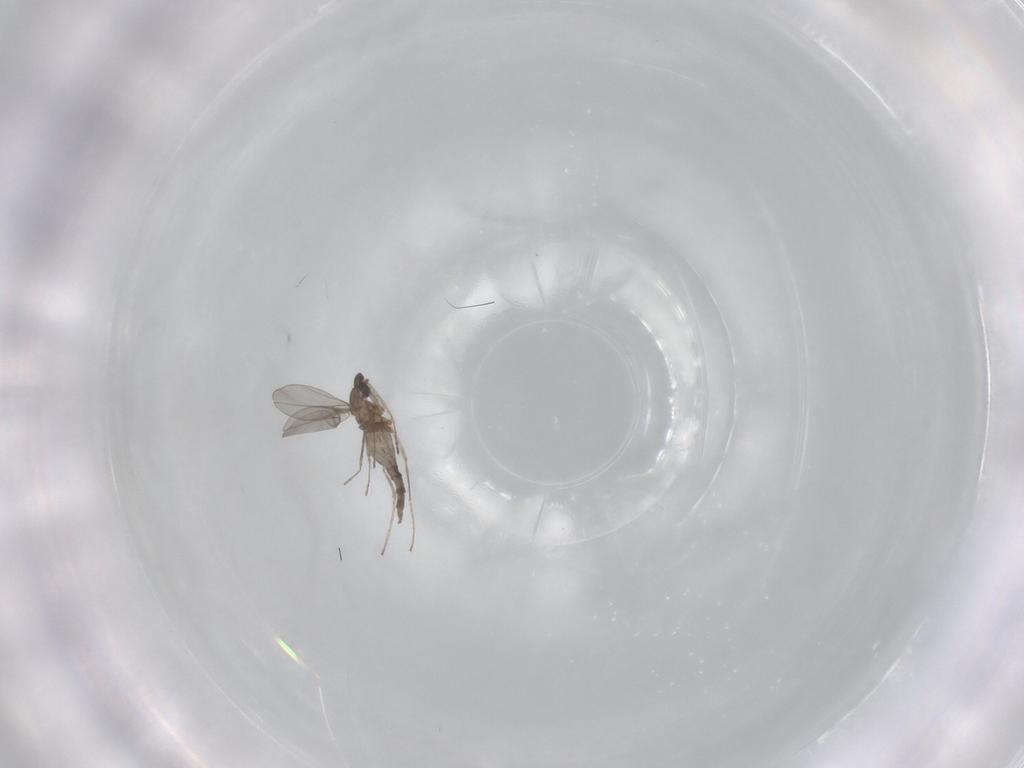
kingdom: Animalia
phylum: Arthropoda
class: Insecta
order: Diptera
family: Cecidomyiidae
